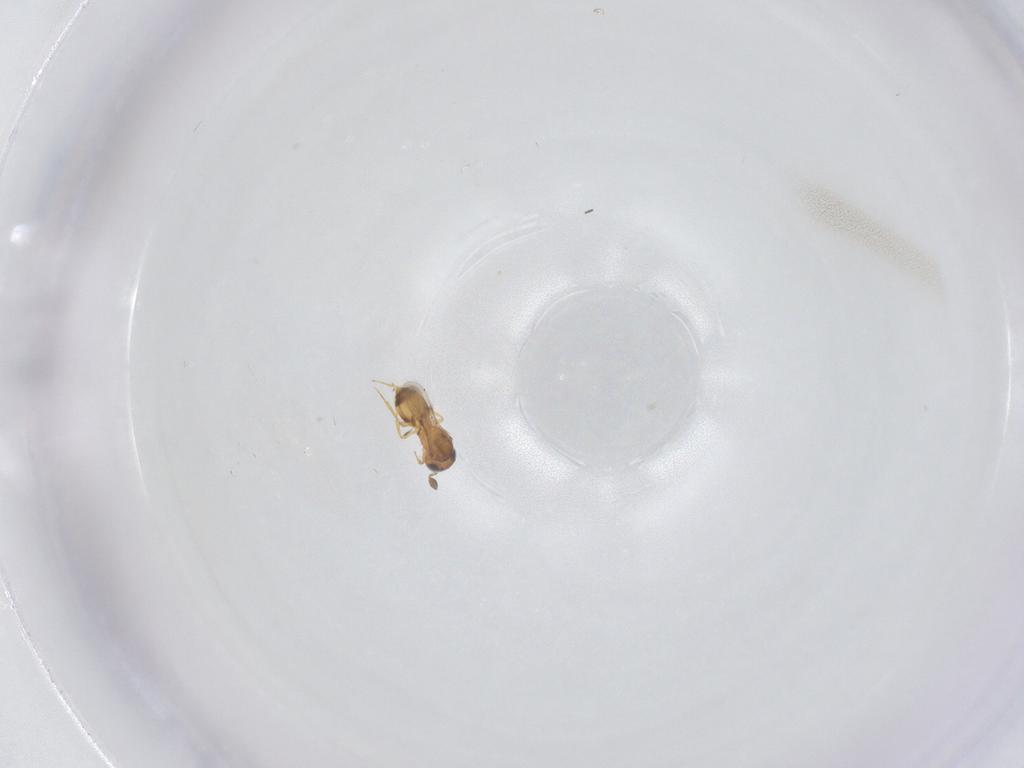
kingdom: Animalia
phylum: Arthropoda
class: Insecta
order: Hymenoptera
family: Scelionidae
